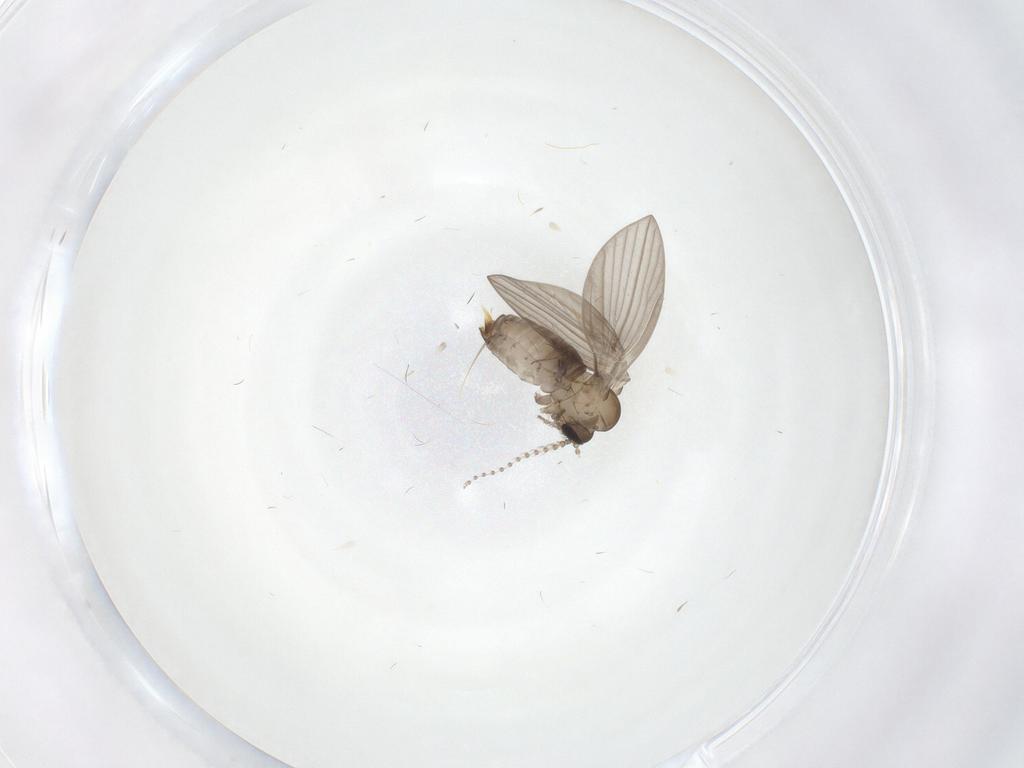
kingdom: Animalia
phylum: Arthropoda
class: Insecta
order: Diptera
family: Psychodidae
